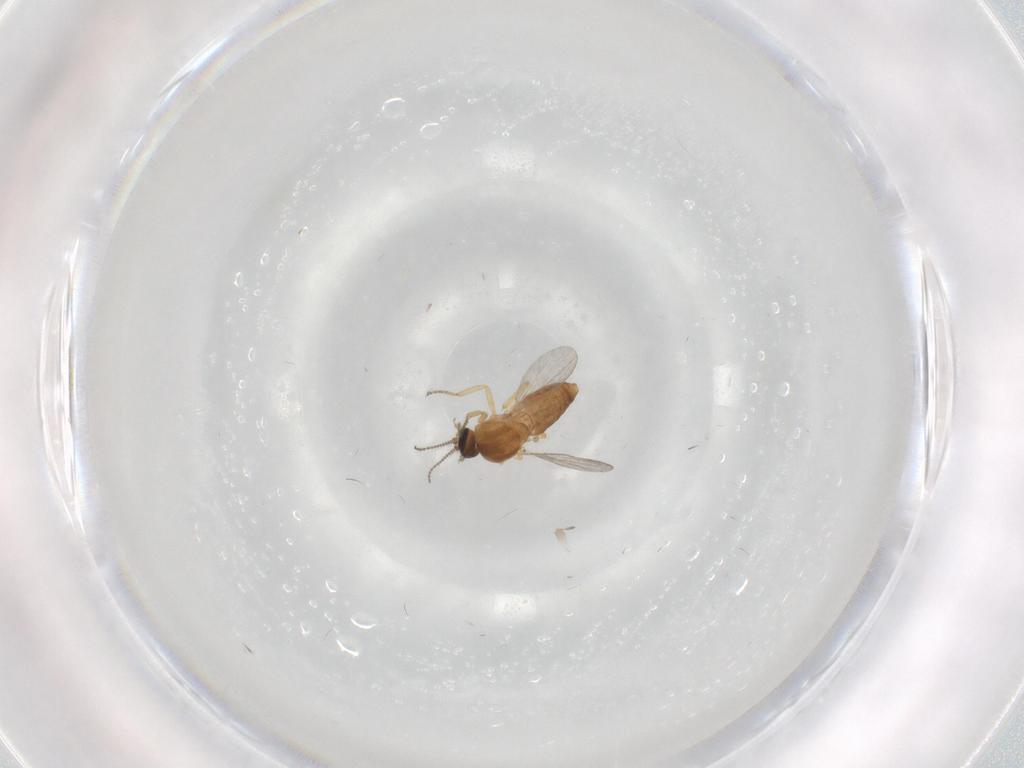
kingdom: Animalia
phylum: Arthropoda
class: Insecta
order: Diptera
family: Ceratopogonidae
